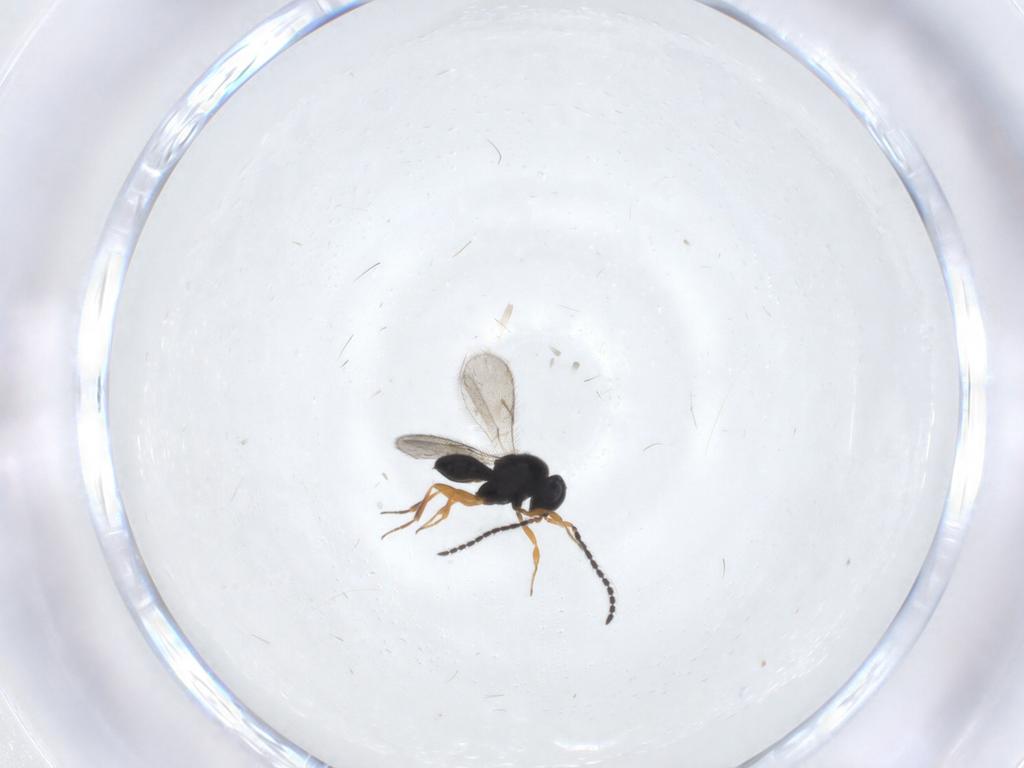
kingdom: Animalia
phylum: Arthropoda
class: Insecta
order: Hymenoptera
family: Scelionidae
